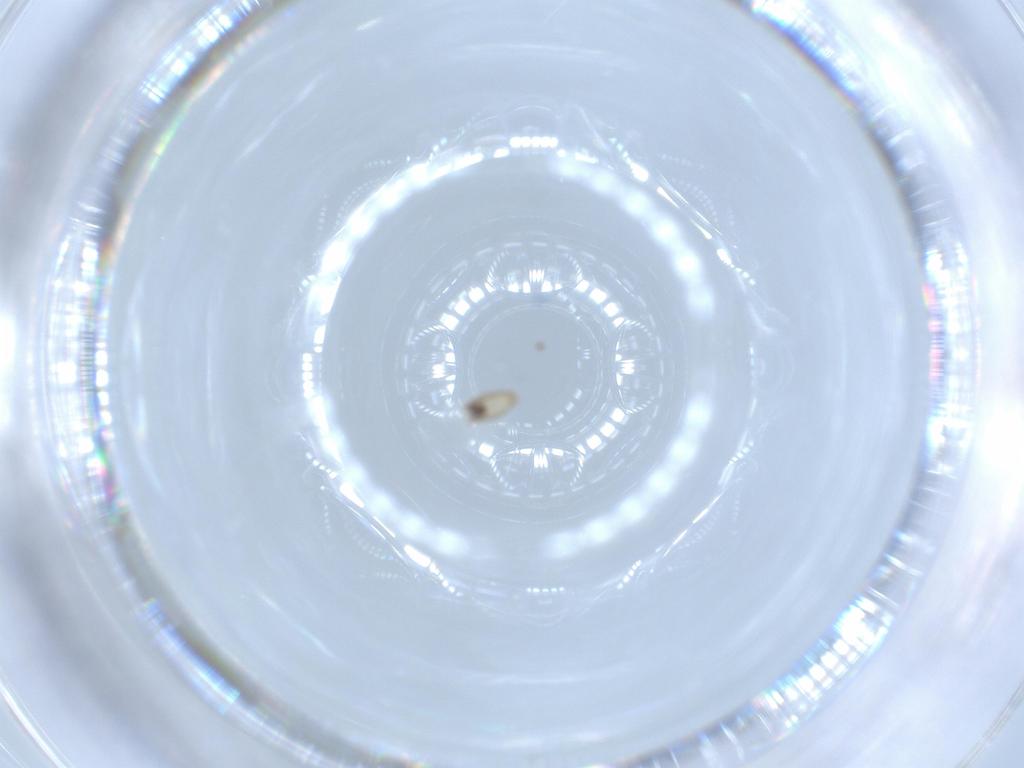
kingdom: Animalia
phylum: Arthropoda
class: Insecta
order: Diptera
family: Cecidomyiidae
